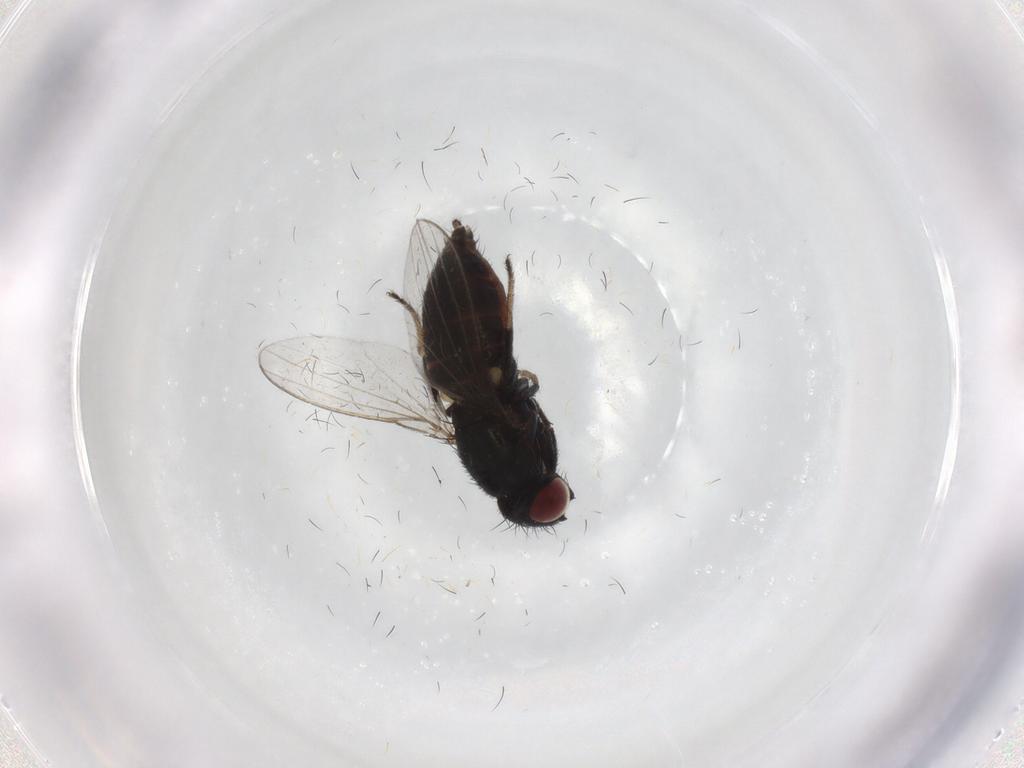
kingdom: Animalia
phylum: Arthropoda
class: Insecta
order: Diptera
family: Milichiidae
